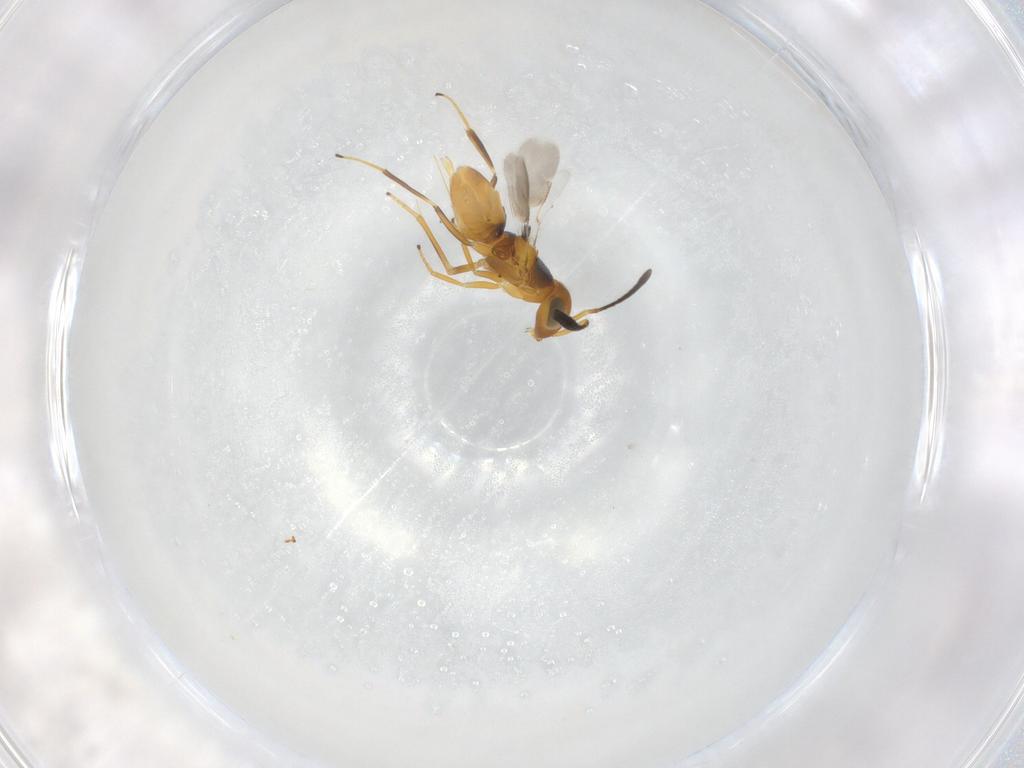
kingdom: Animalia
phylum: Arthropoda
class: Insecta
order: Hymenoptera
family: Encyrtidae
